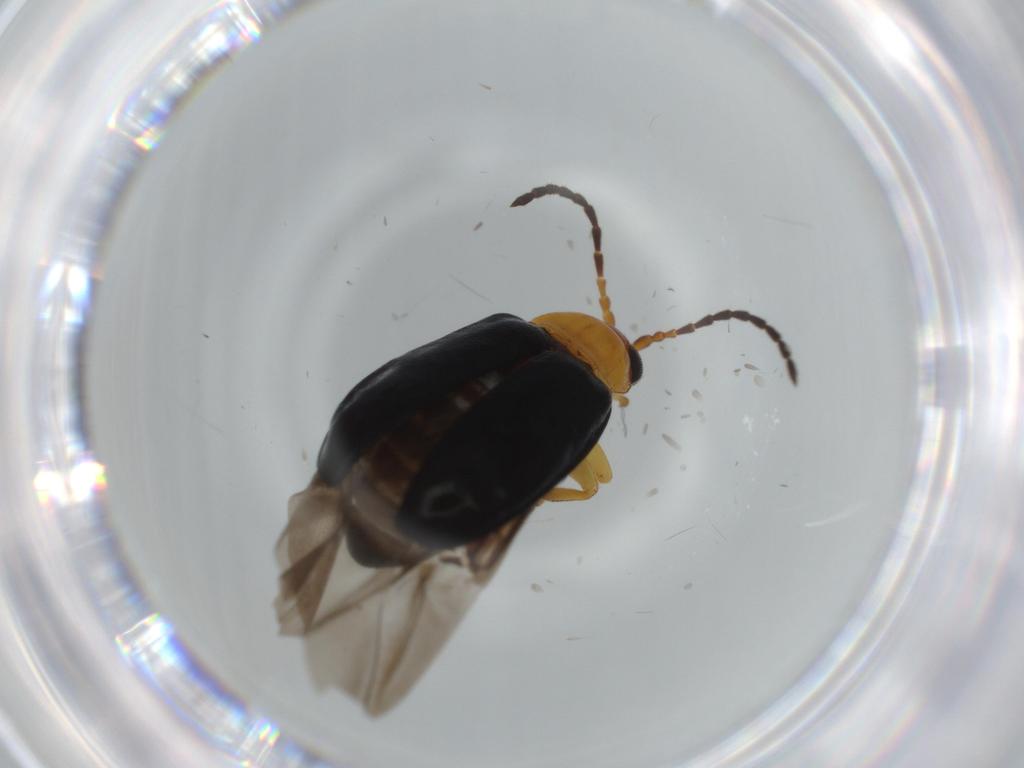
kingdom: Animalia
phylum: Arthropoda
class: Insecta
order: Coleoptera
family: Chrysomelidae
